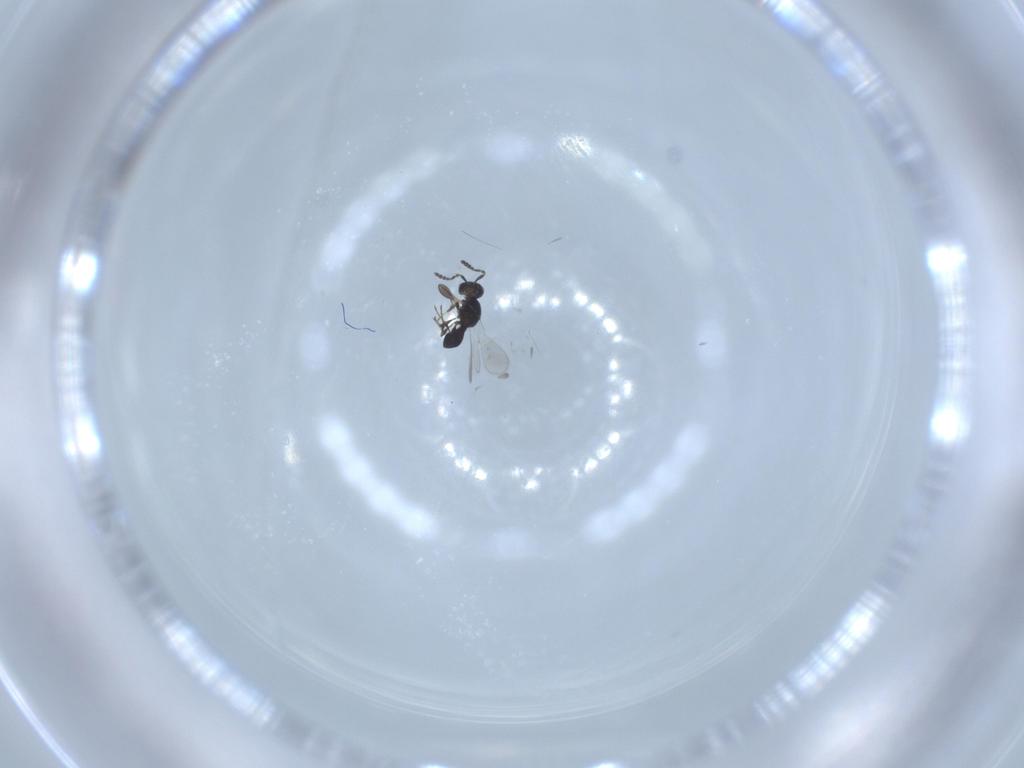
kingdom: Animalia
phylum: Arthropoda
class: Insecta
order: Hymenoptera
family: Platygastridae
